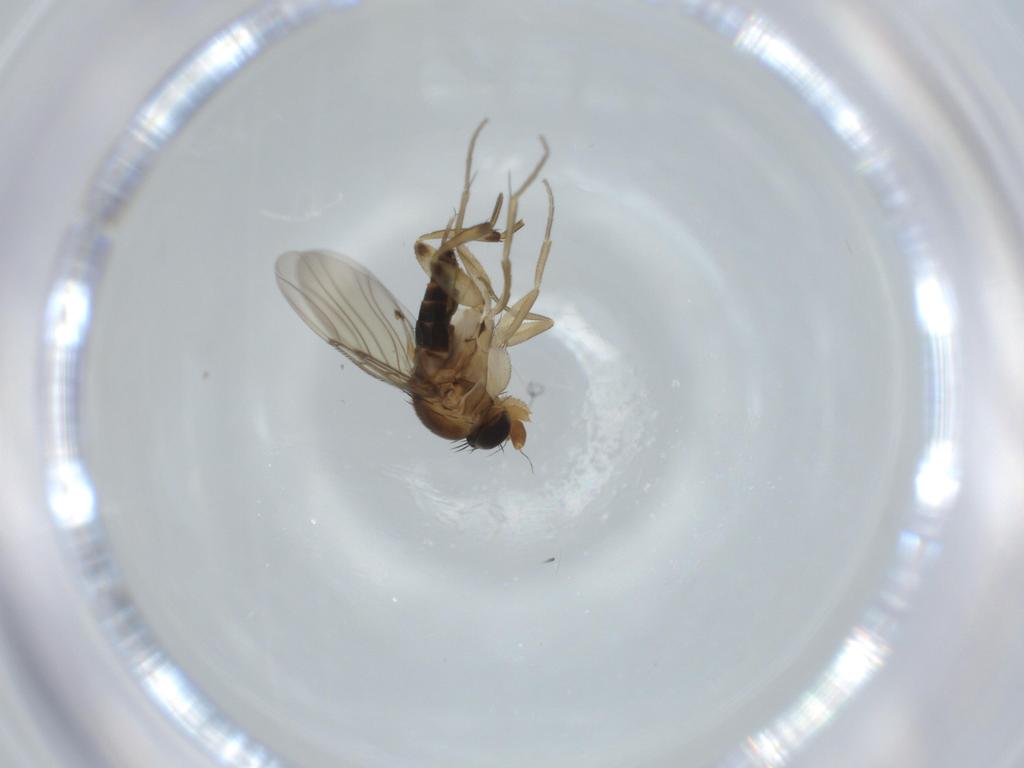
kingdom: Animalia
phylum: Arthropoda
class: Insecta
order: Diptera
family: Phoridae
